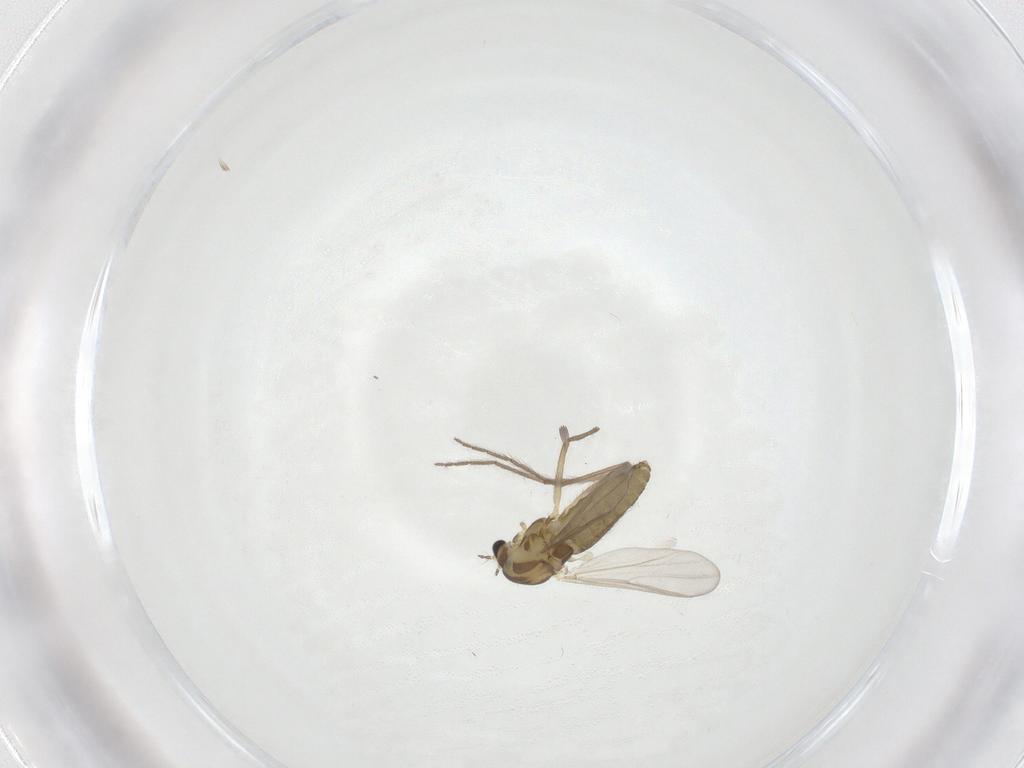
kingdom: Animalia
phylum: Arthropoda
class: Insecta
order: Diptera
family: Chironomidae
